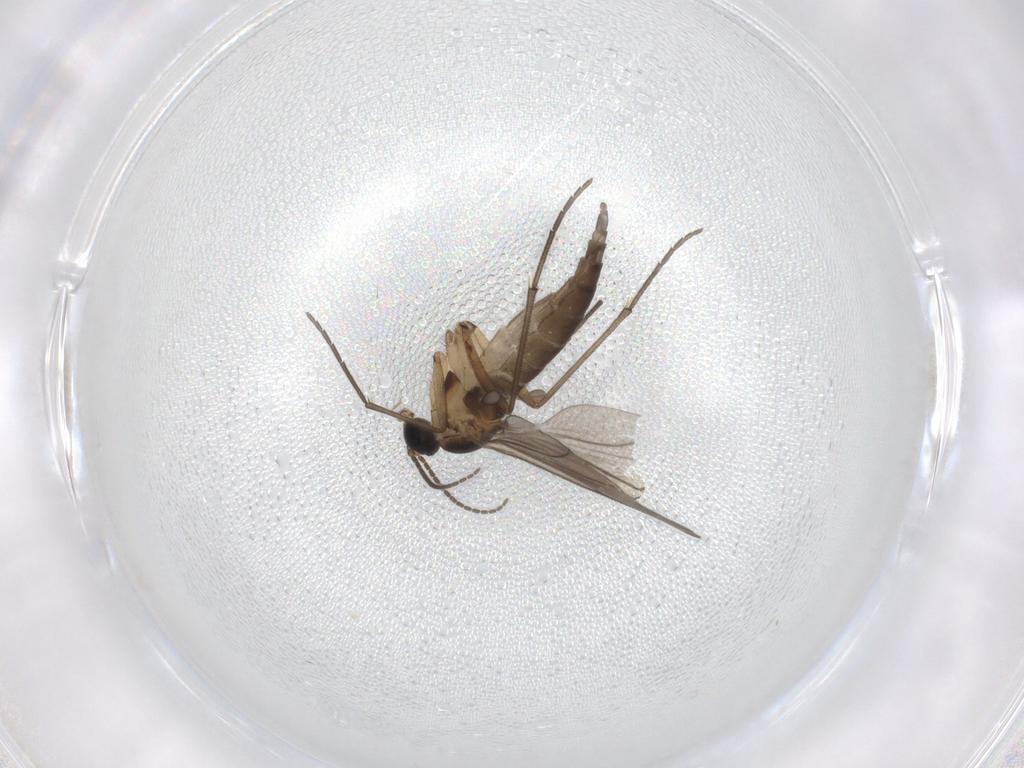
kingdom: Animalia
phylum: Arthropoda
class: Insecta
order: Diptera
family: Sciaridae
